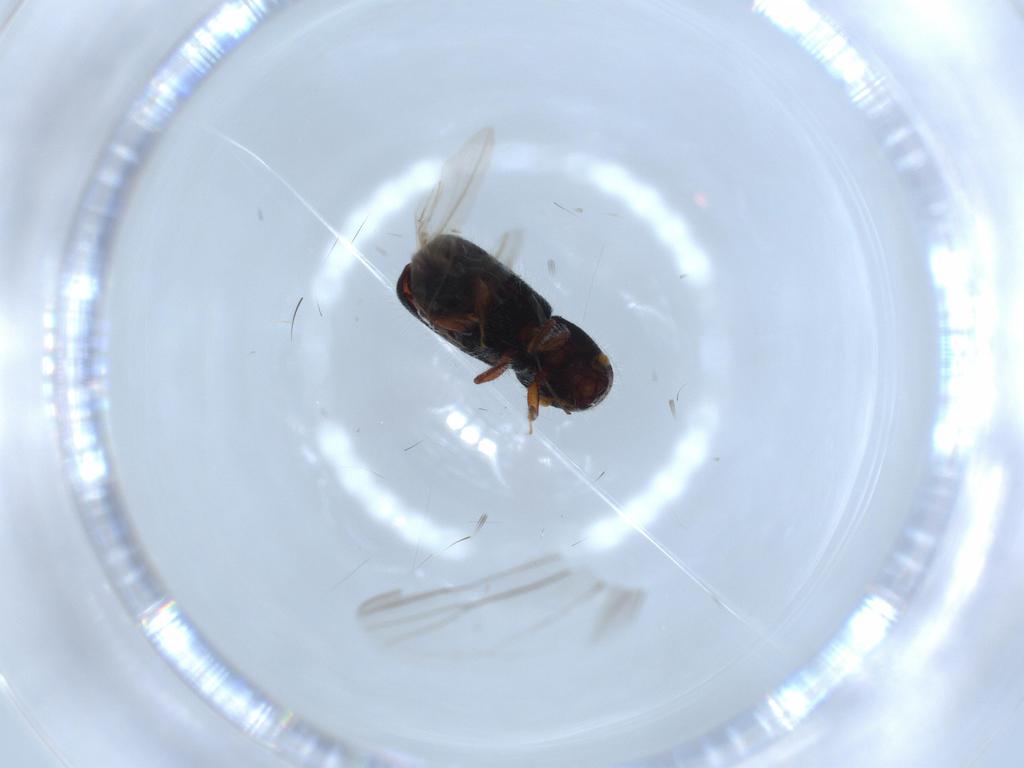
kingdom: Animalia
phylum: Arthropoda
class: Insecta
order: Coleoptera
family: Curculionidae
